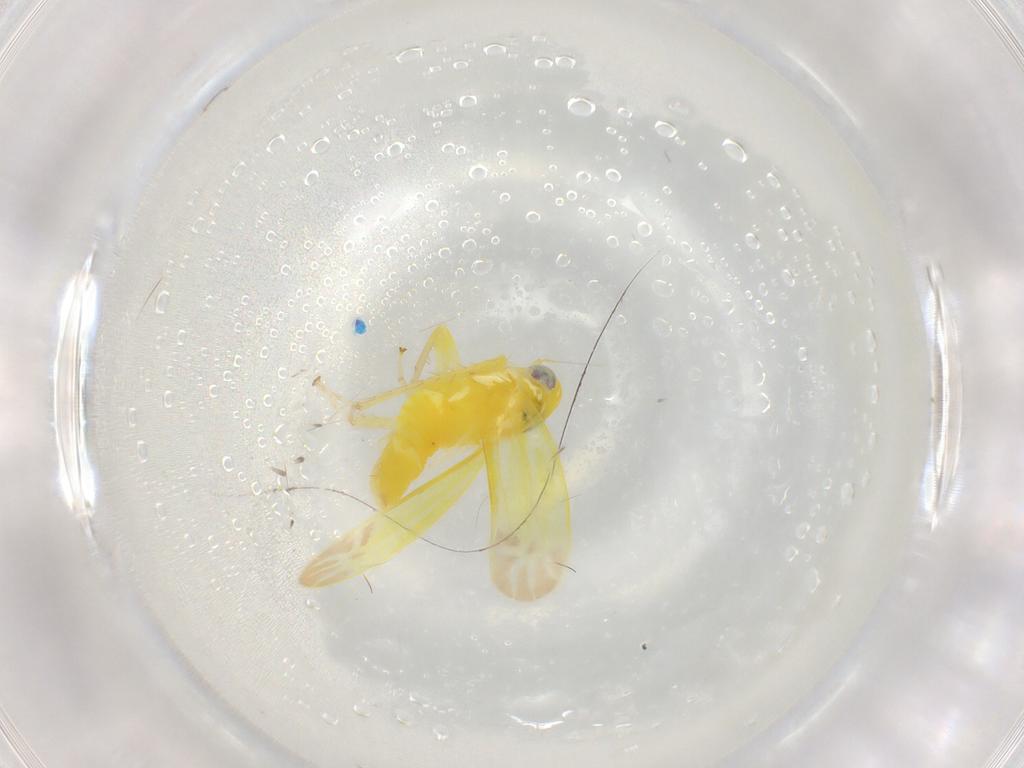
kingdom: Animalia
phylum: Arthropoda
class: Insecta
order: Hemiptera
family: Cicadellidae
